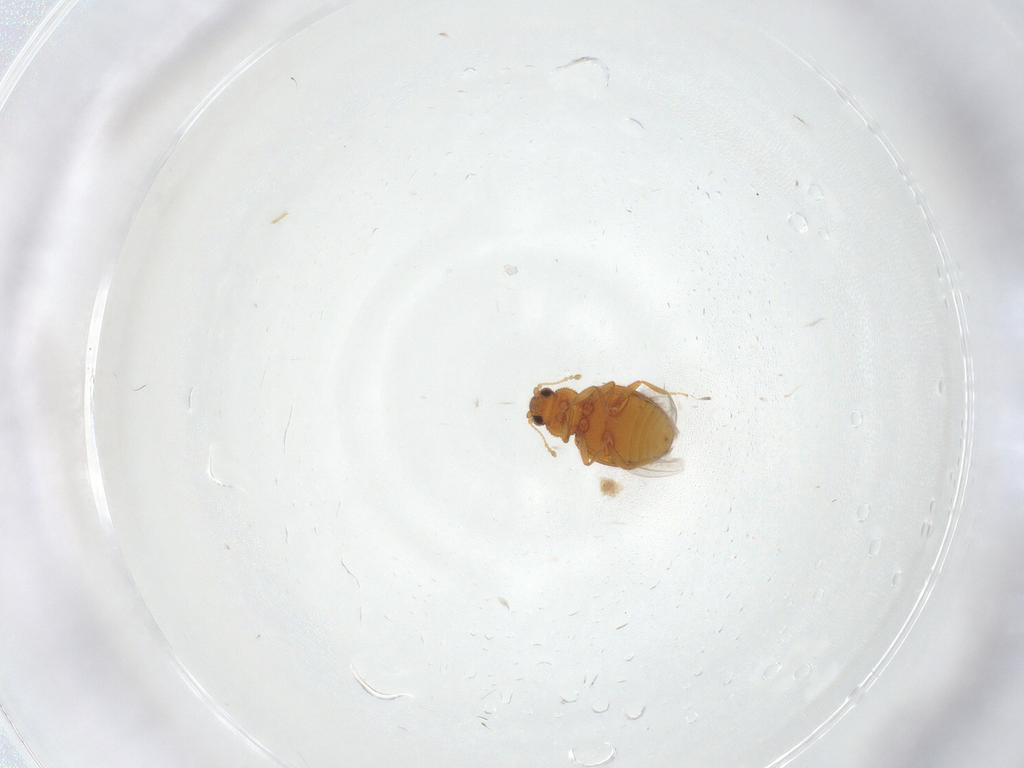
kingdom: Animalia
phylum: Arthropoda
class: Insecta
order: Coleoptera
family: Latridiidae
